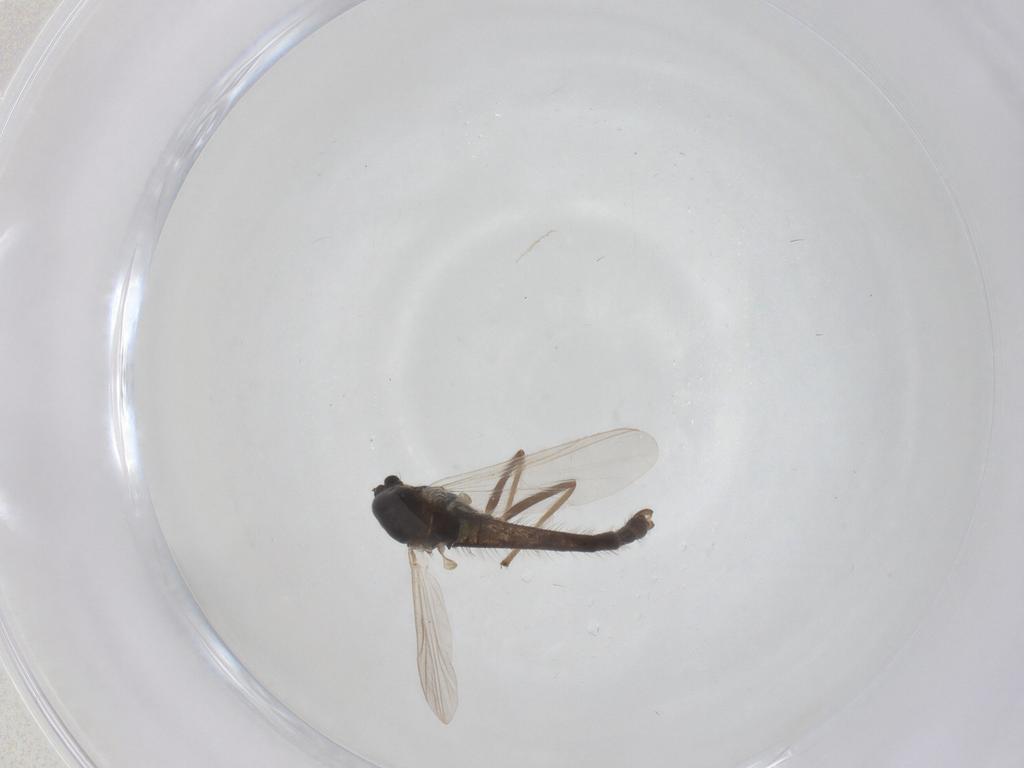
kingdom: Animalia
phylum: Arthropoda
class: Insecta
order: Diptera
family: Chironomidae
